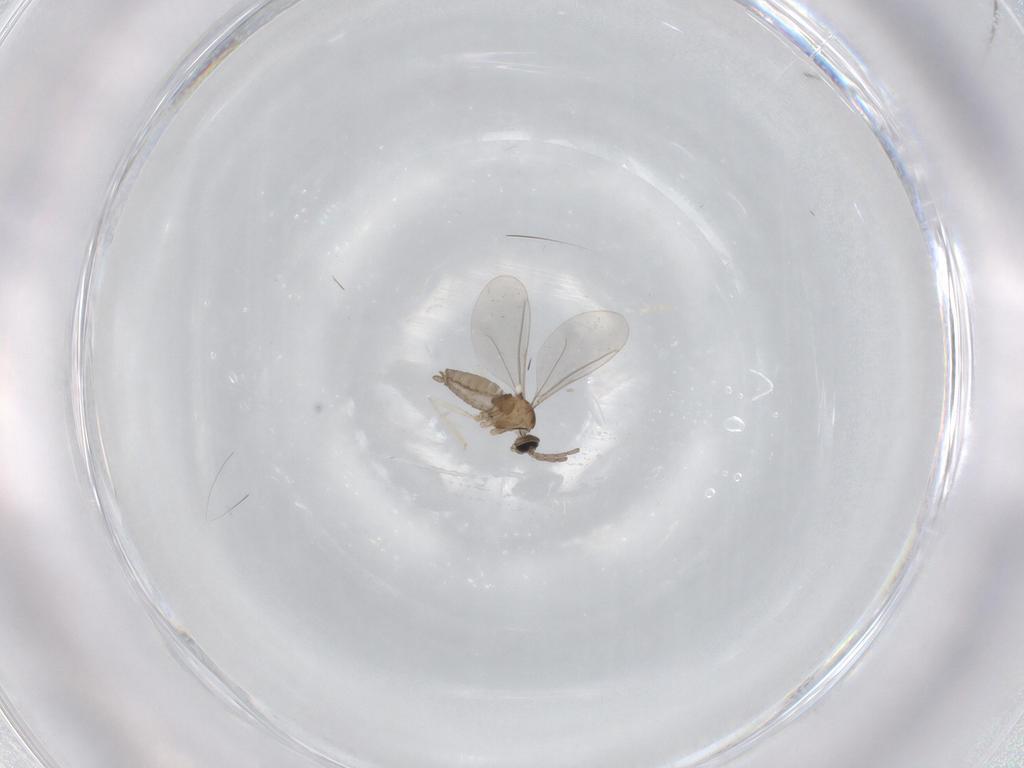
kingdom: Animalia
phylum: Arthropoda
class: Insecta
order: Diptera
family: Cecidomyiidae
